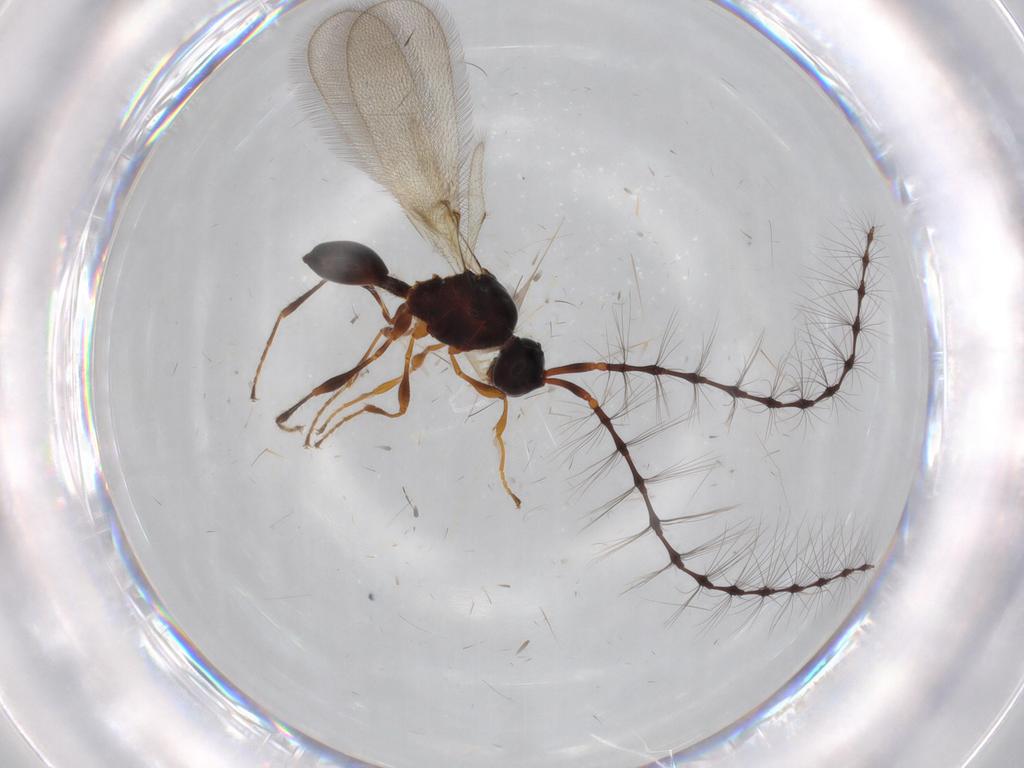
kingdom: Animalia
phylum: Arthropoda
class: Insecta
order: Hymenoptera
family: Diapriidae
